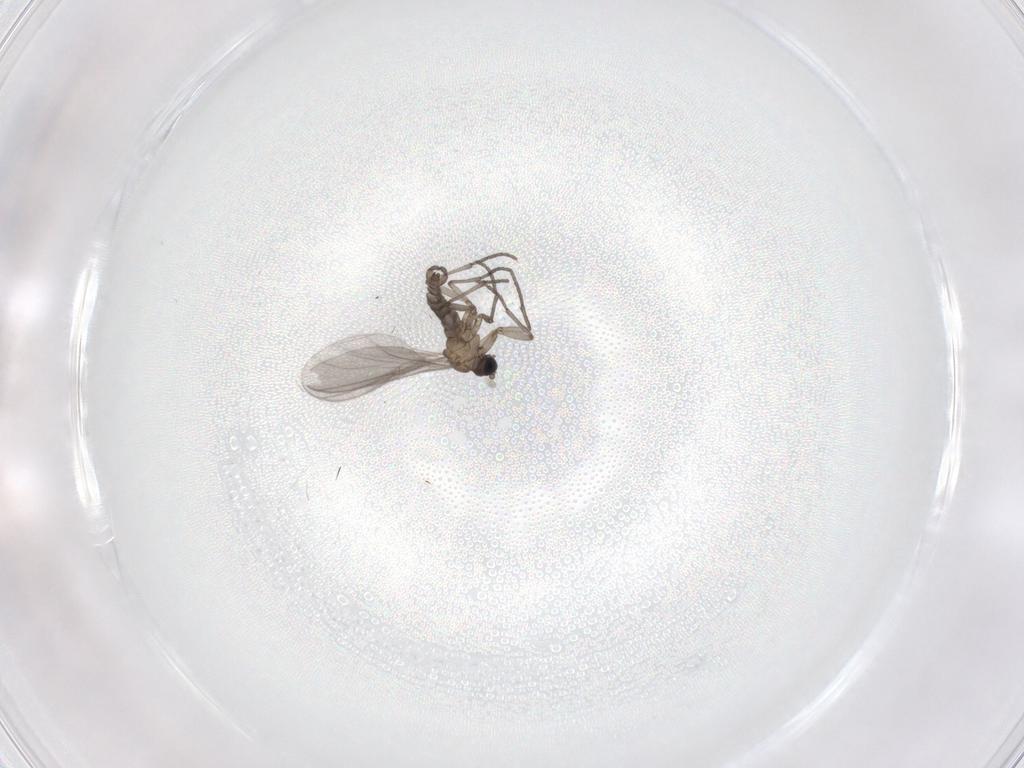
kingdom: Animalia
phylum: Arthropoda
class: Insecta
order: Diptera
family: Sciaridae
